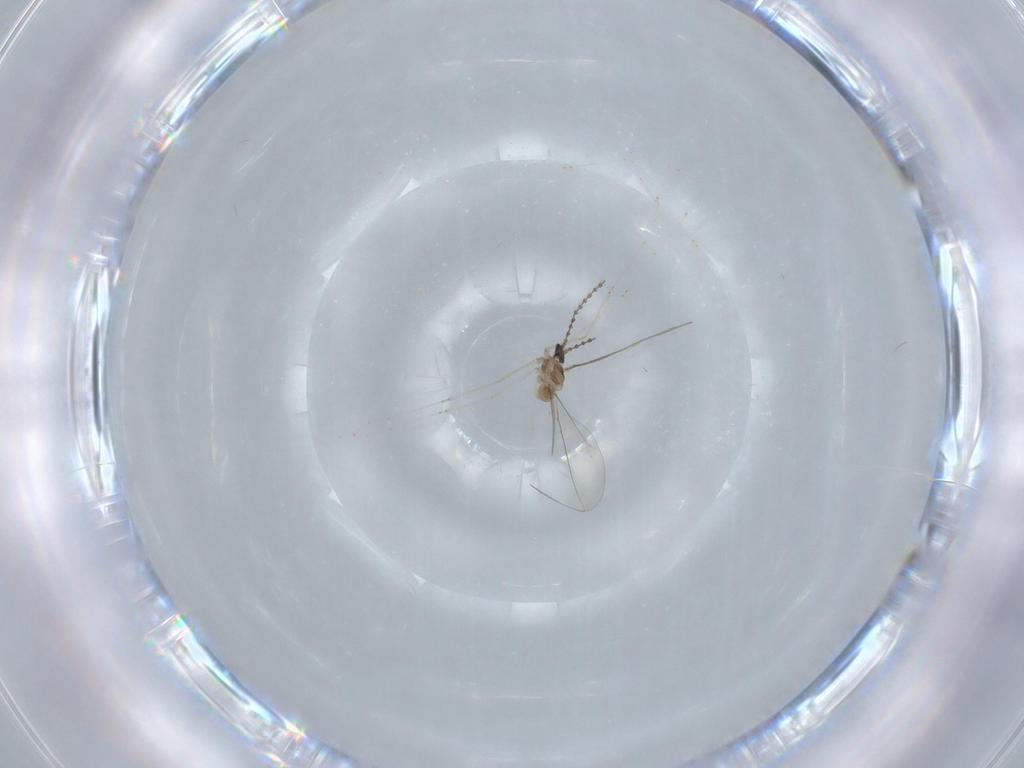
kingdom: Animalia
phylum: Arthropoda
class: Insecta
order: Diptera
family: Cecidomyiidae
